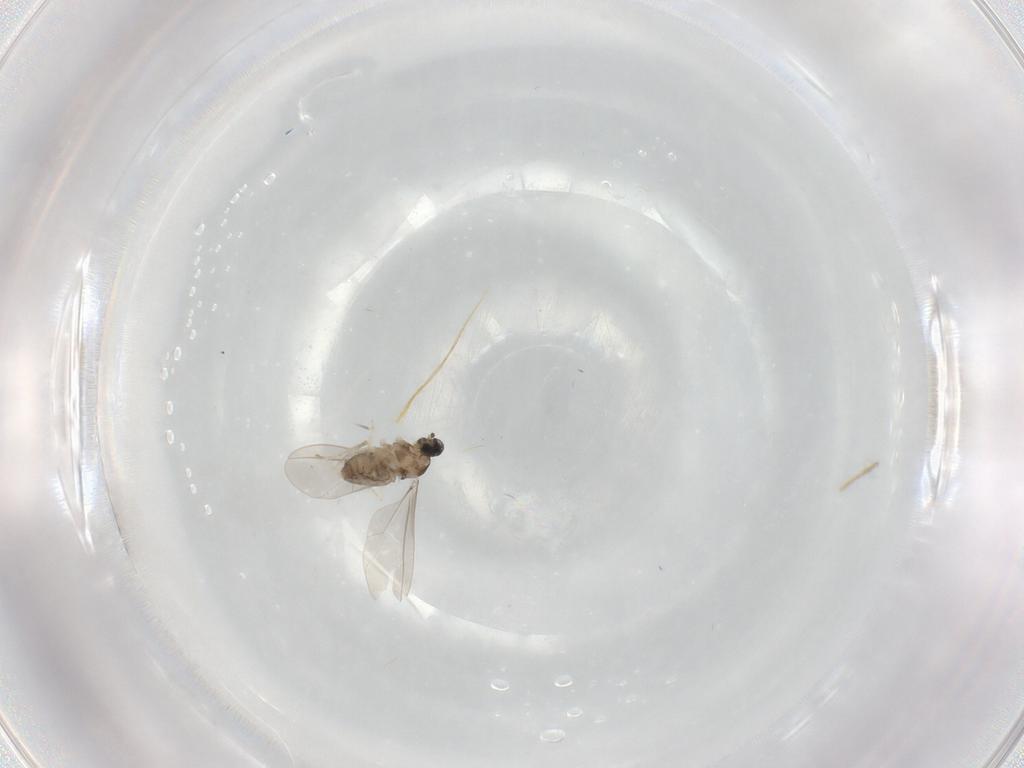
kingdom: Animalia
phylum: Arthropoda
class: Insecta
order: Diptera
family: Cecidomyiidae
